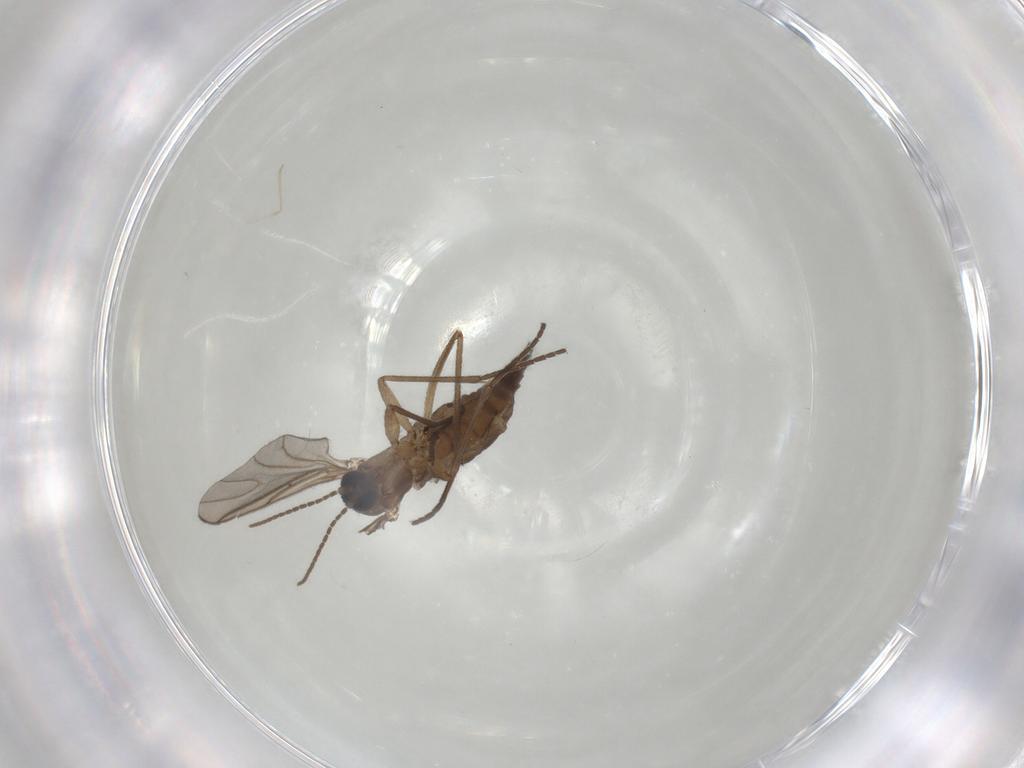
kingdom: Animalia
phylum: Arthropoda
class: Insecta
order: Diptera
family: Sciaridae
